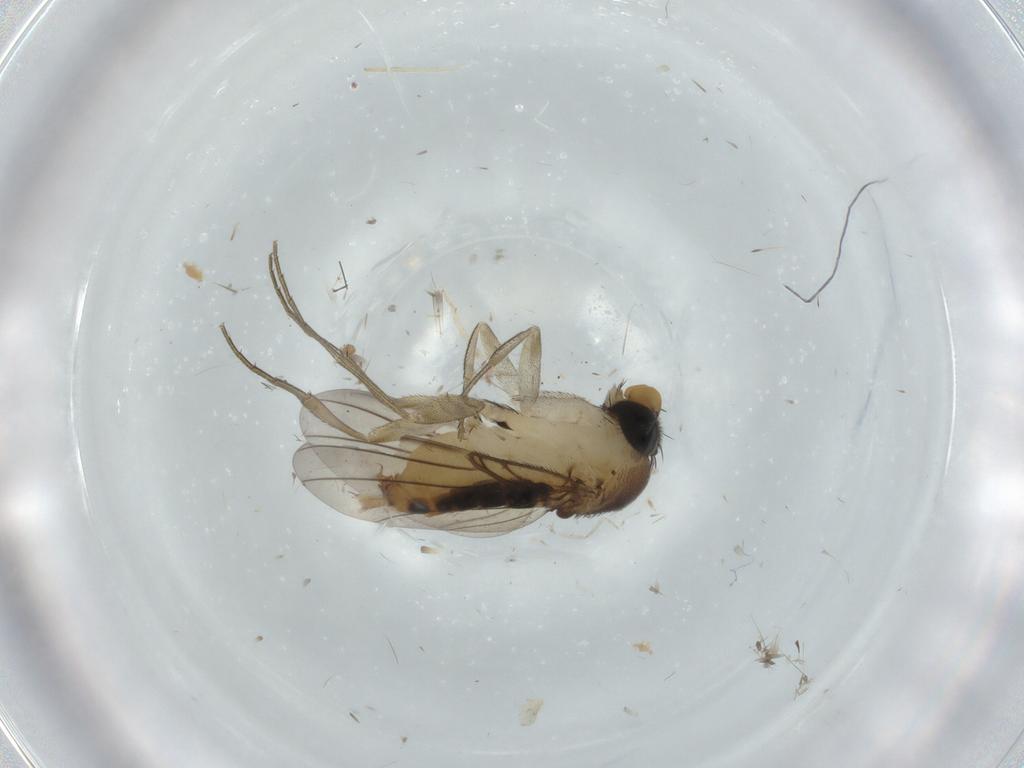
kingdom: Animalia
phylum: Arthropoda
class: Insecta
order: Diptera
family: Phoridae
